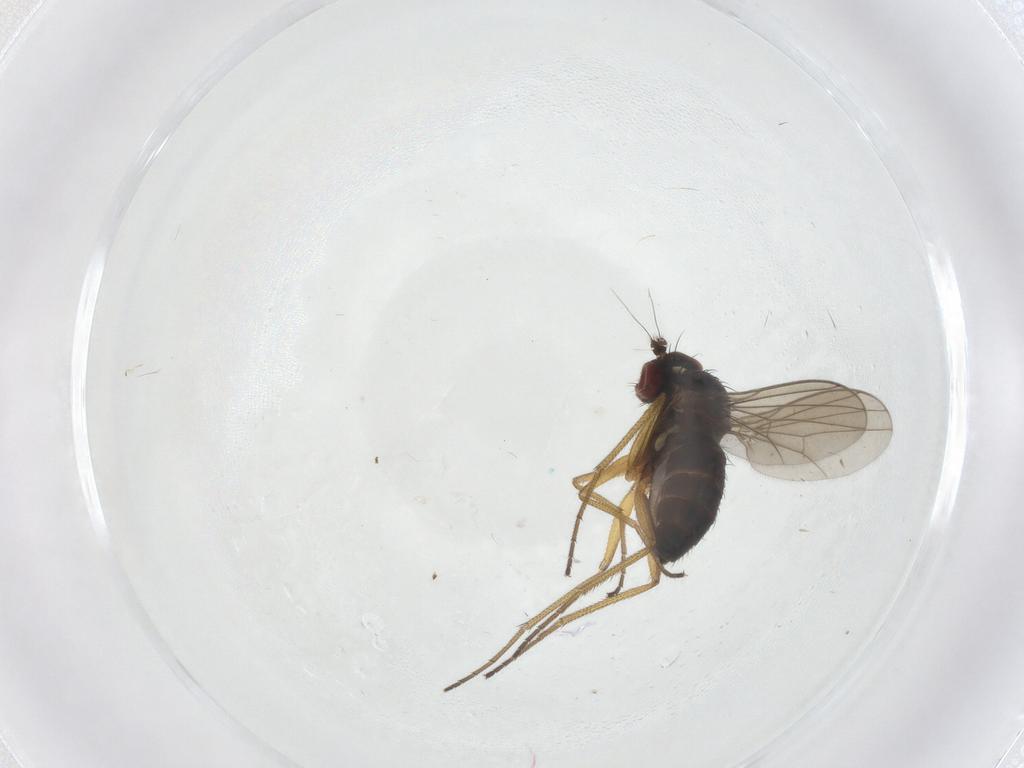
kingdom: Animalia
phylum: Arthropoda
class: Insecta
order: Diptera
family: Dolichopodidae
